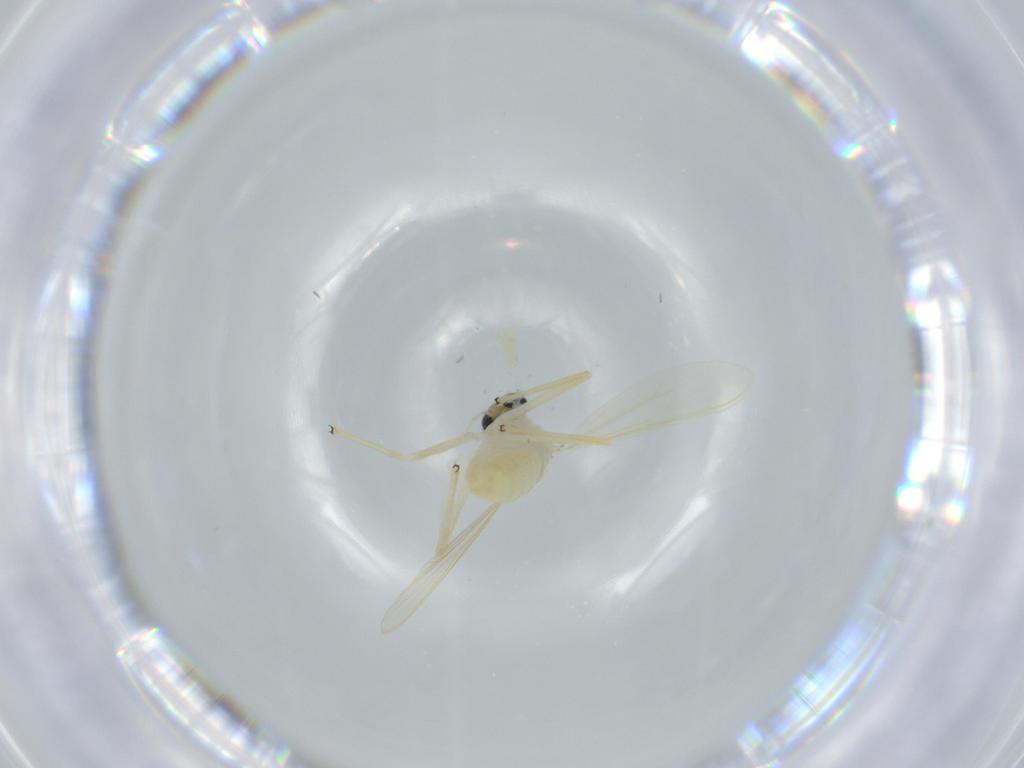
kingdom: Animalia
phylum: Arthropoda
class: Insecta
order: Diptera
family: Chironomidae
